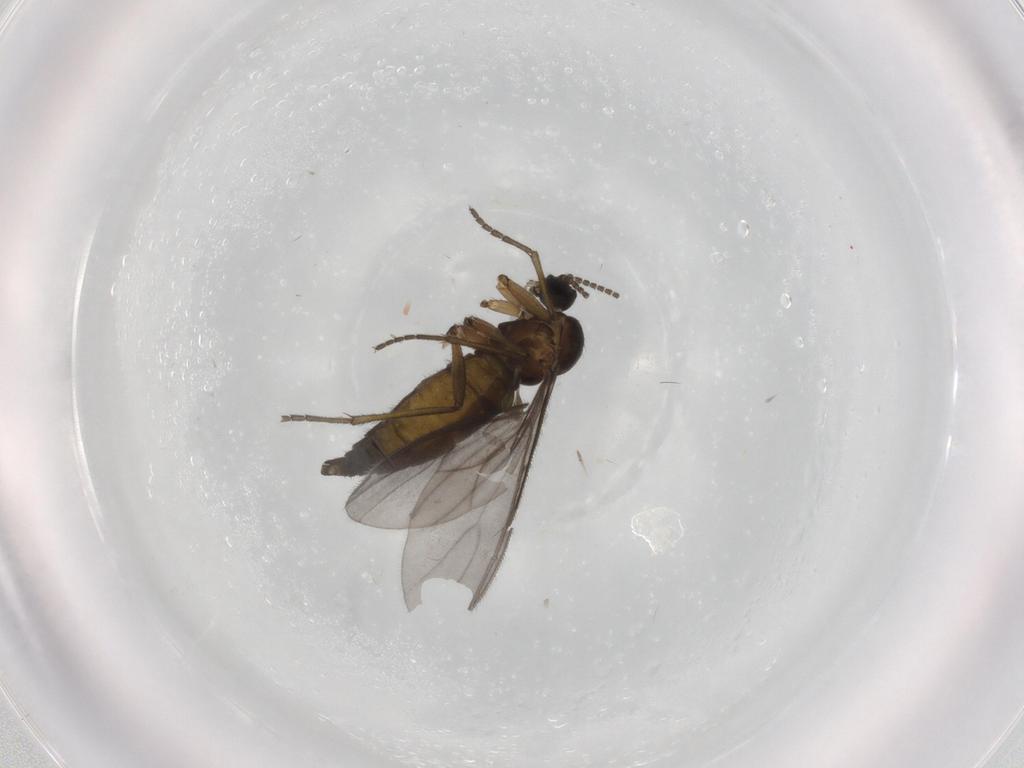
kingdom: Animalia
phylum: Arthropoda
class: Insecta
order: Diptera
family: Sciaridae
